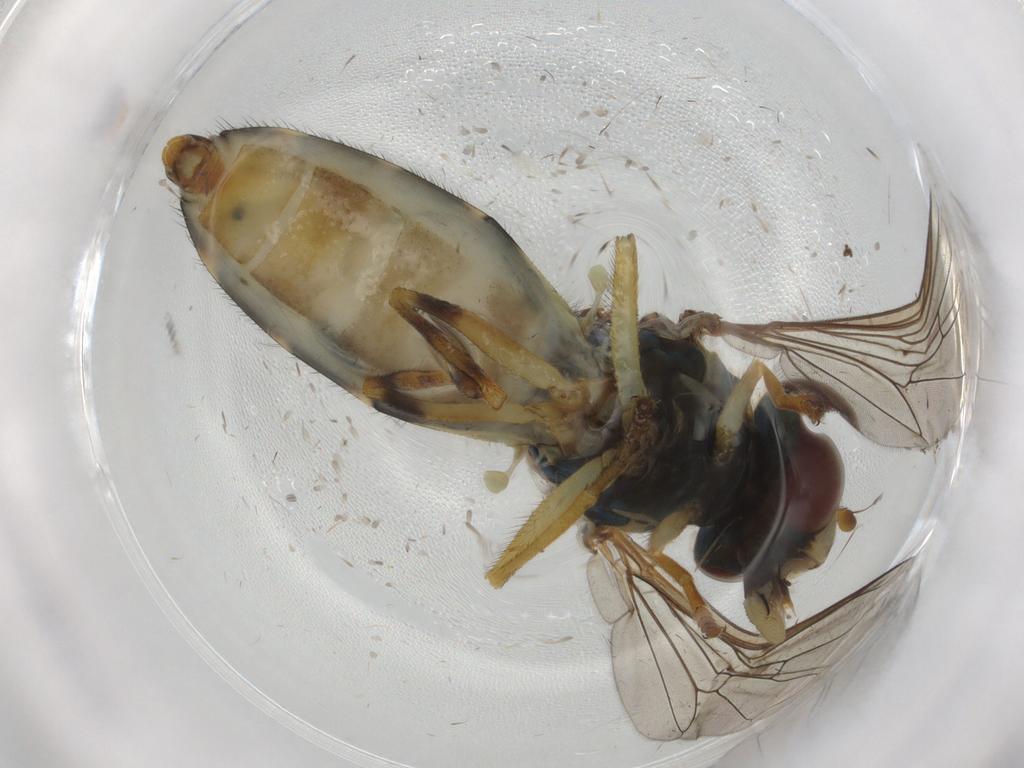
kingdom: Animalia
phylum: Arthropoda
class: Insecta
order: Diptera
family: Syrphidae
